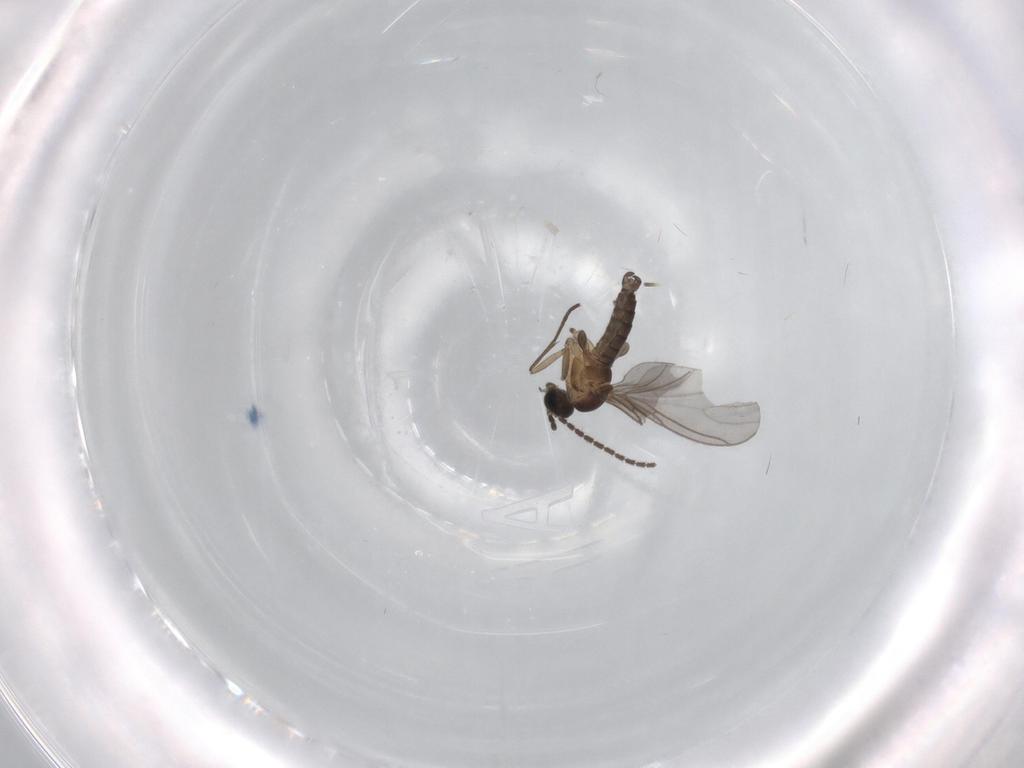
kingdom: Animalia
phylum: Arthropoda
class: Insecta
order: Diptera
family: Sciaridae
